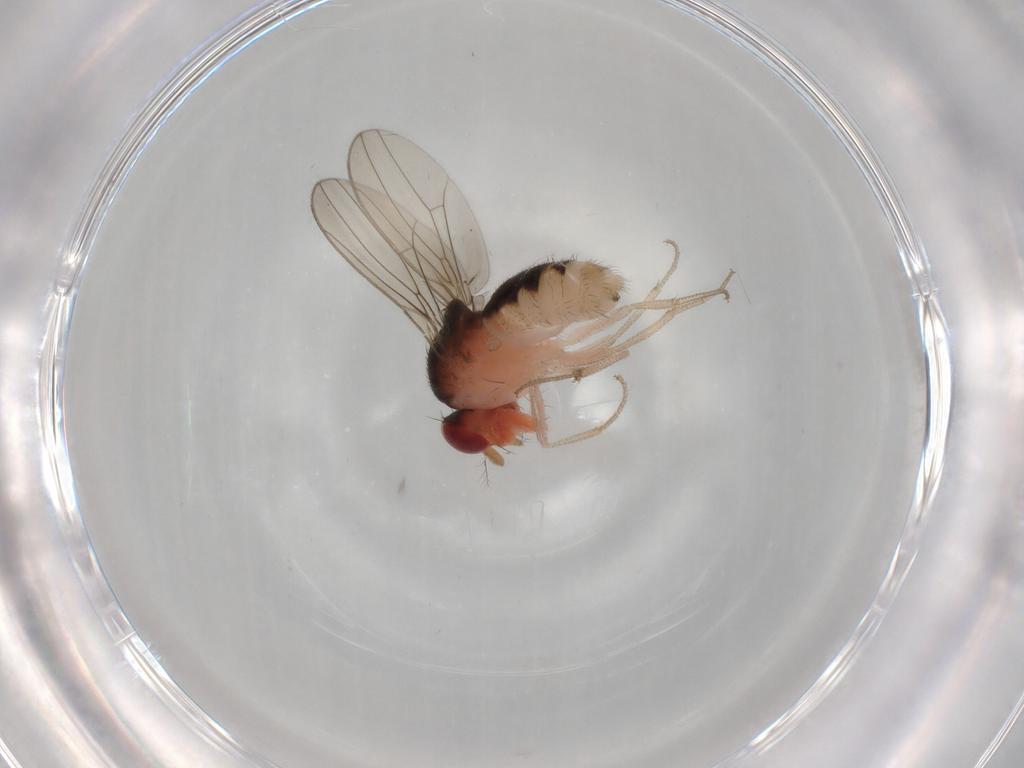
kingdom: Animalia
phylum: Arthropoda
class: Insecta
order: Diptera
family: Drosophilidae
